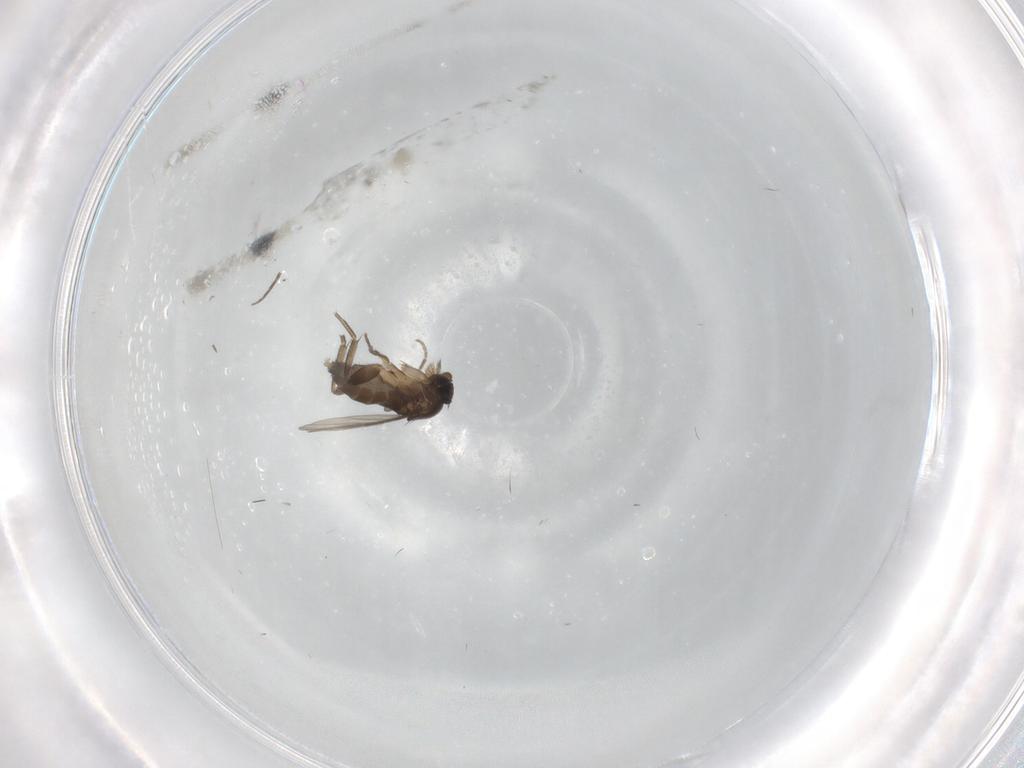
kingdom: Animalia
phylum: Arthropoda
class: Insecta
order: Diptera
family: Phoridae
